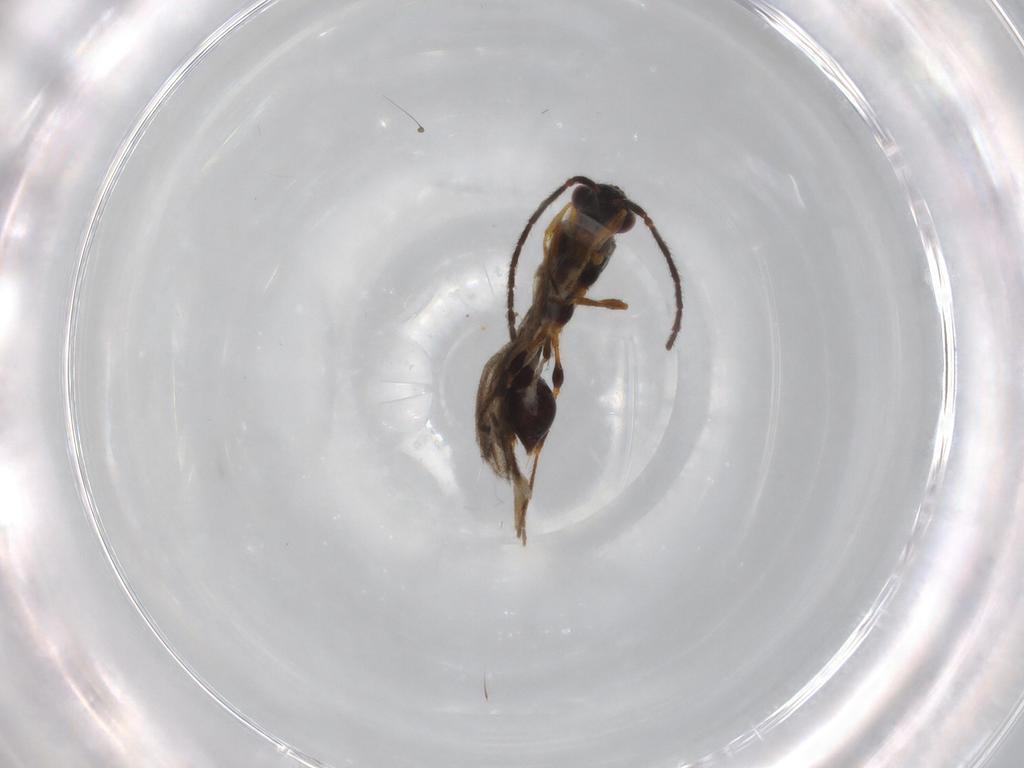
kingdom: Animalia
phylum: Arthropoda
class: Insecta
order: Hymenoptera
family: Diapriidae
